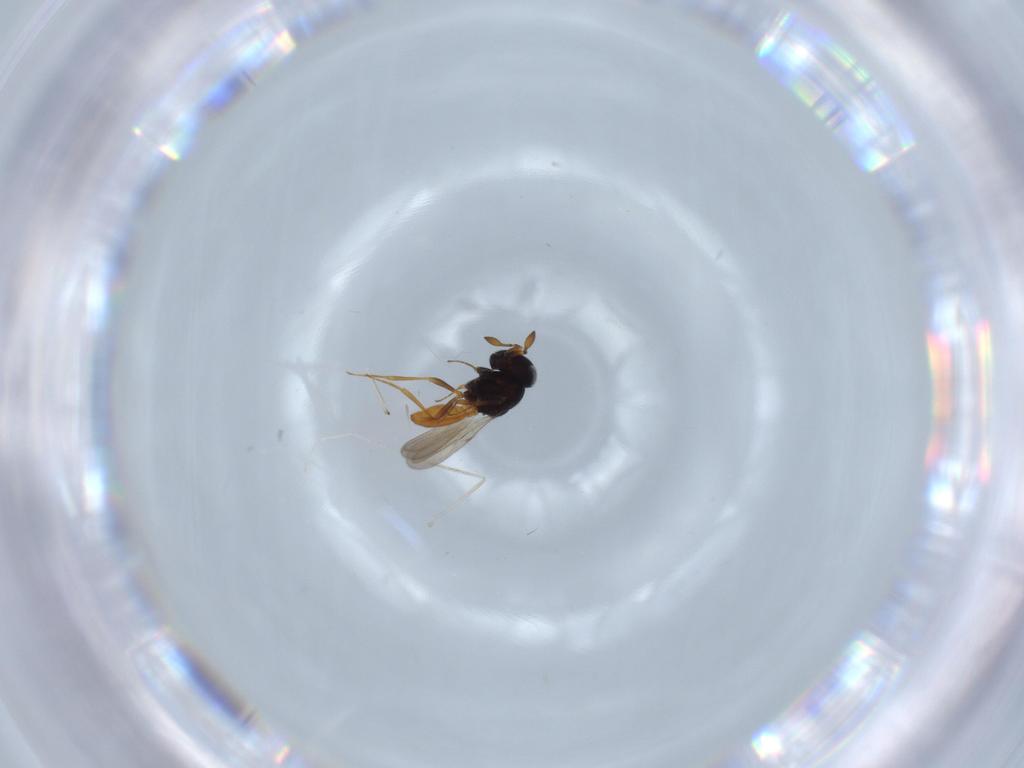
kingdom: Animalia
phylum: Arthropoda
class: Insecta
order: Hymenoptera
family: Scelionidae
